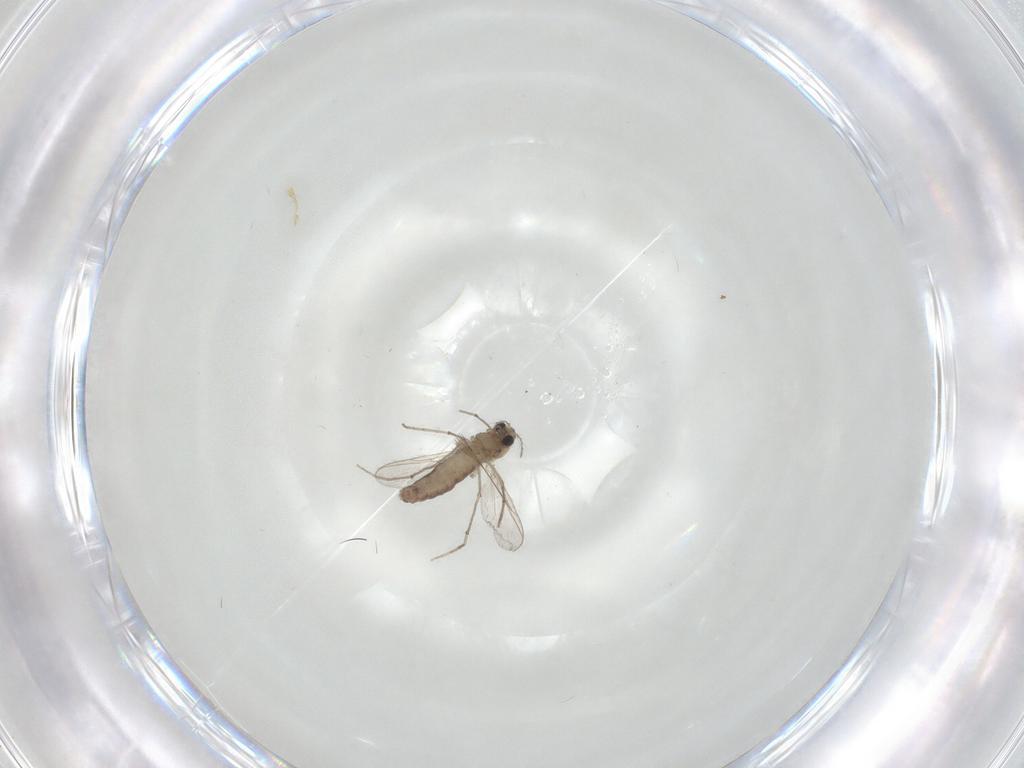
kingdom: Animalia
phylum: Arthropoda
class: Insecta
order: Diptera
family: Chironomidae
